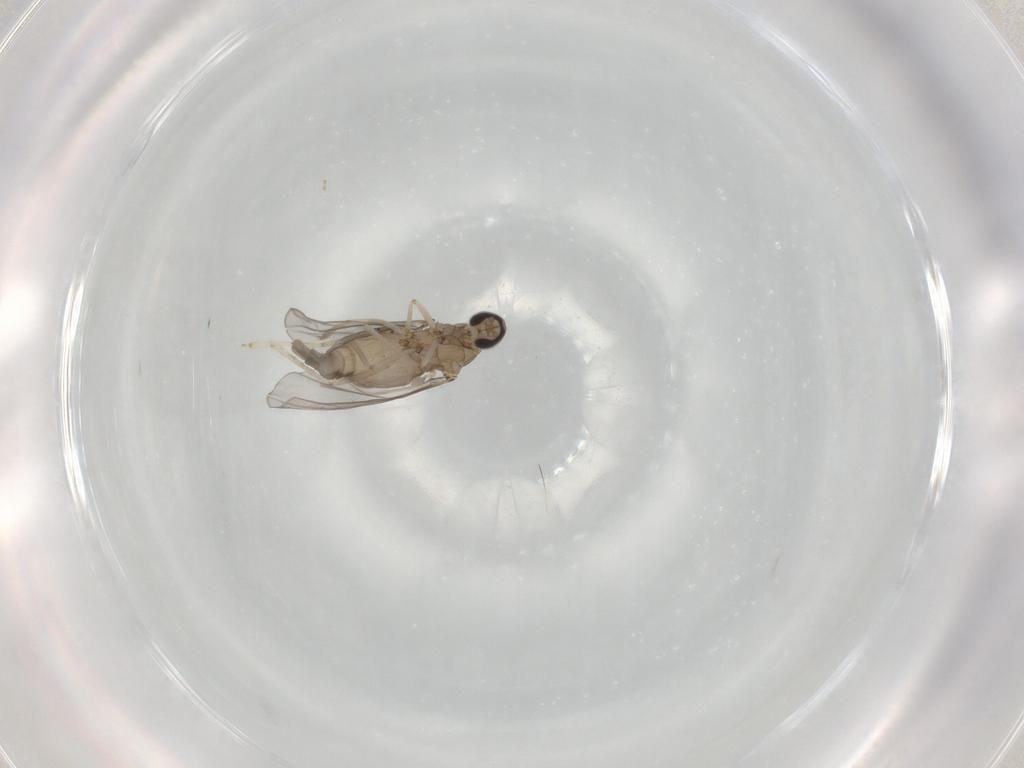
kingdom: Animalia
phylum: Arthropoda
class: Insecta
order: Diptera
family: Cecidomyiidae
